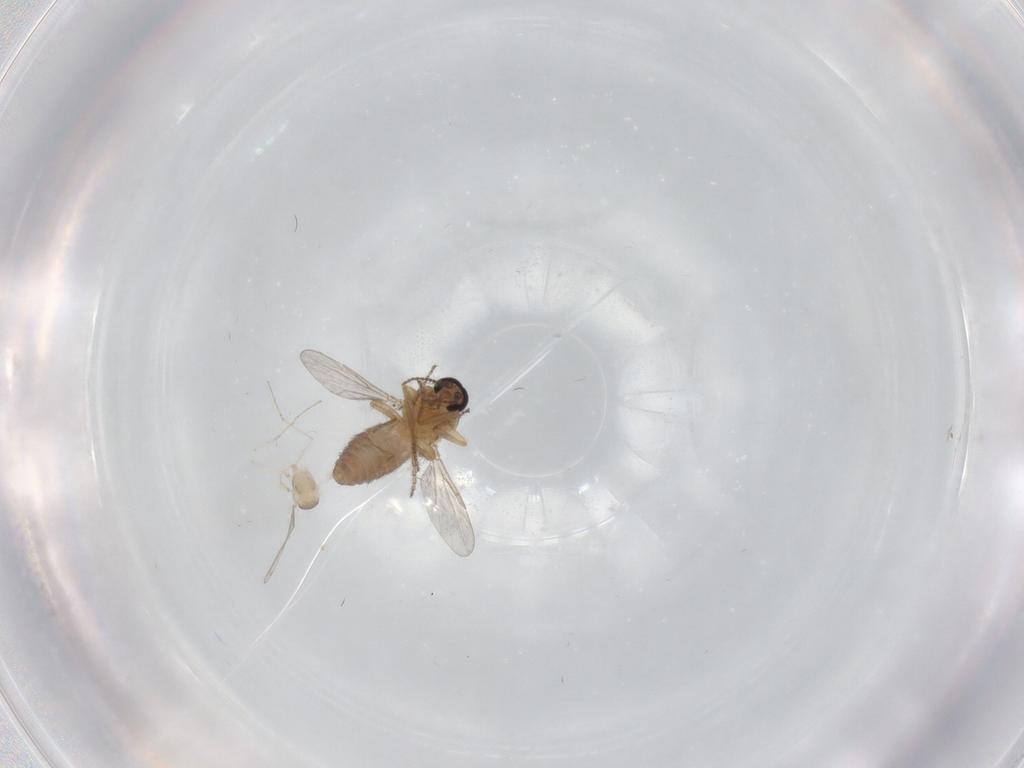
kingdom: Animalia
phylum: Arthropoda
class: Insecta
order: Diptera
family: Ceratopogonidae
